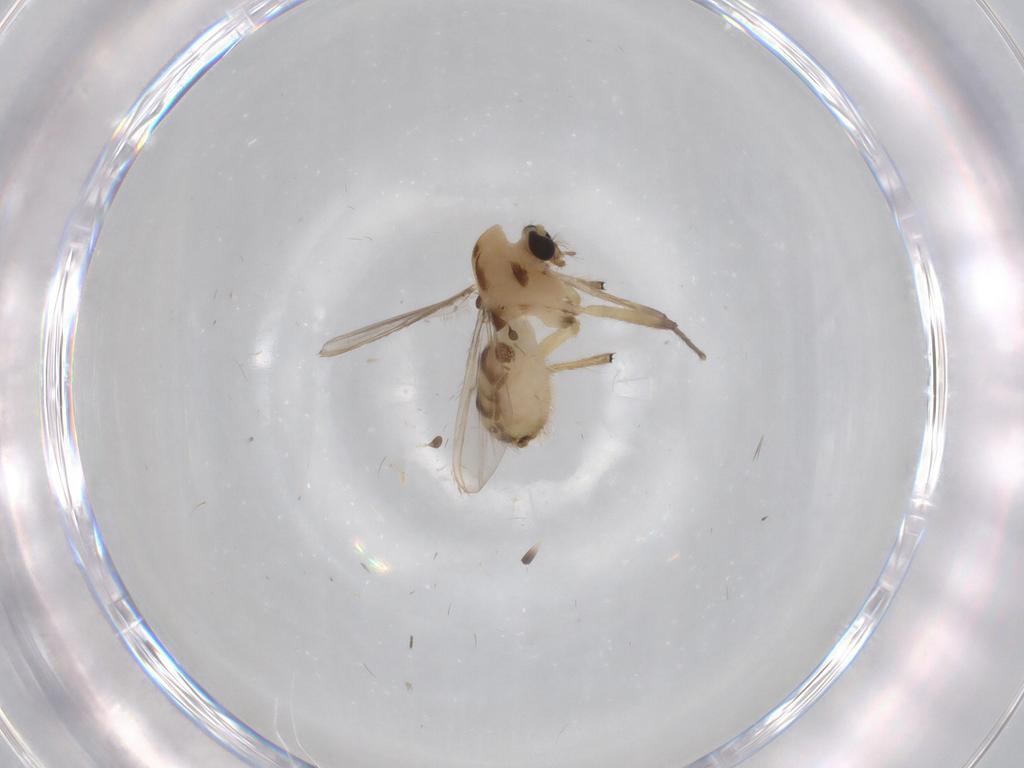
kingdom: Animalia
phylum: Arthropoda
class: Insecta
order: Diptera
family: Chironomidae
